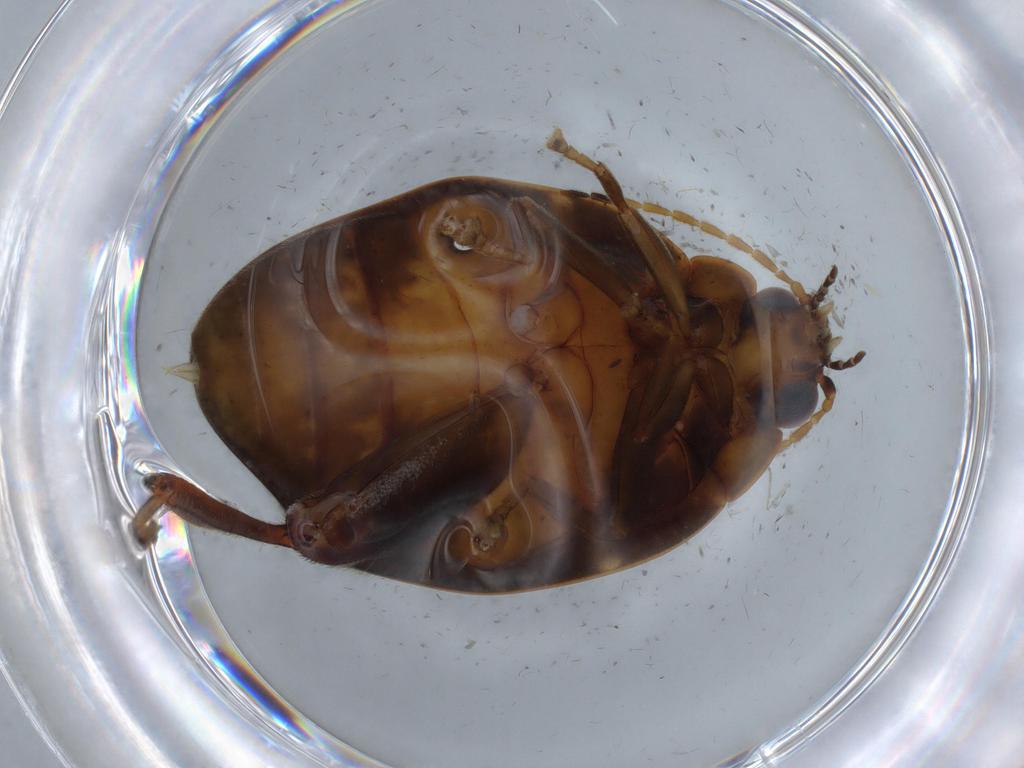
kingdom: Animalia
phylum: Arthropoda
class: Insecta
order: Coleoptera
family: Scirtidae
